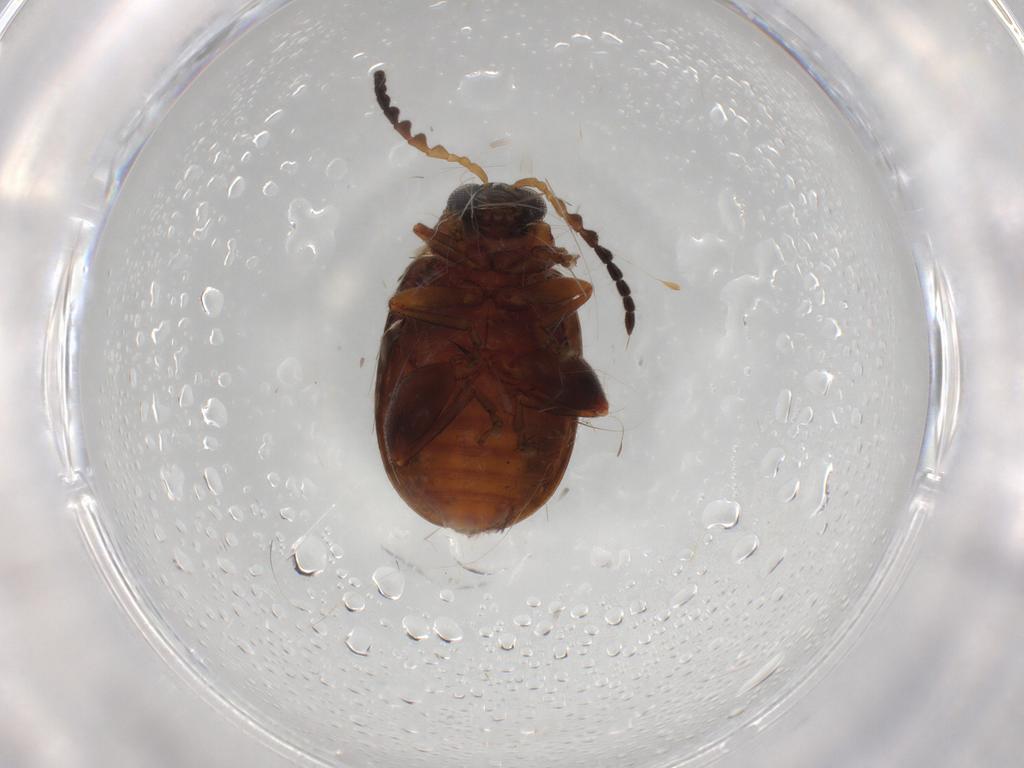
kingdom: Animalia
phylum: Arthropoda
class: Insecta
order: Coleoptera
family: Chrysomelidae
